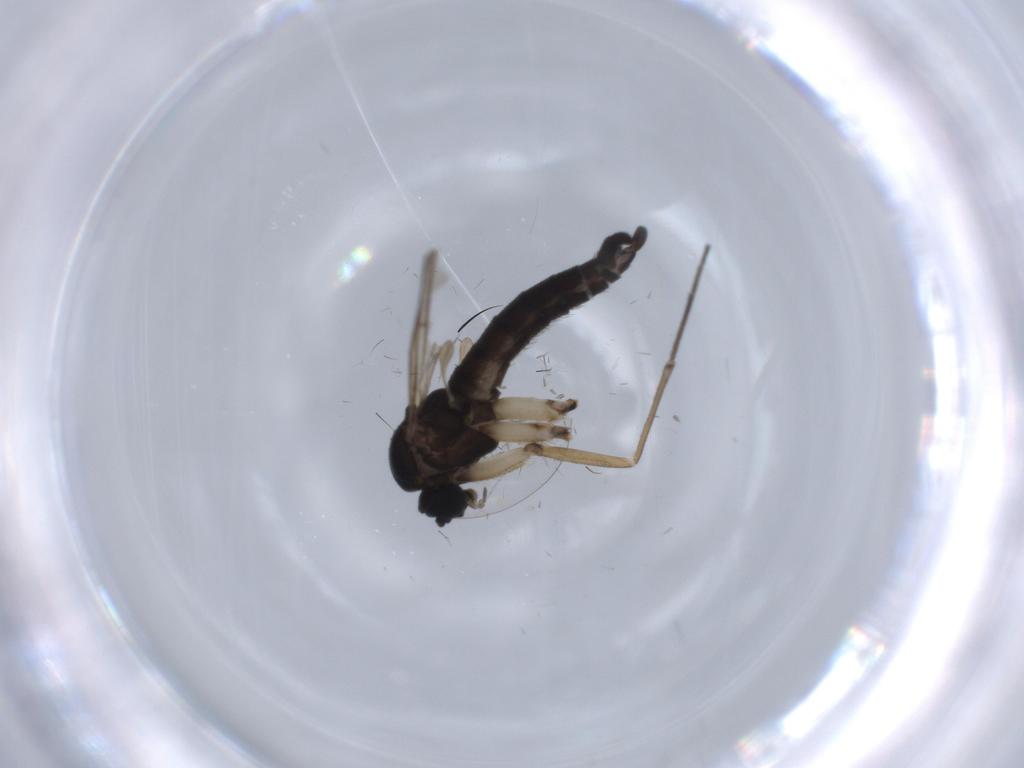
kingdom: Animalia
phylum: Arthropoda
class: Insecta
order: Diptera
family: Sciaridae
